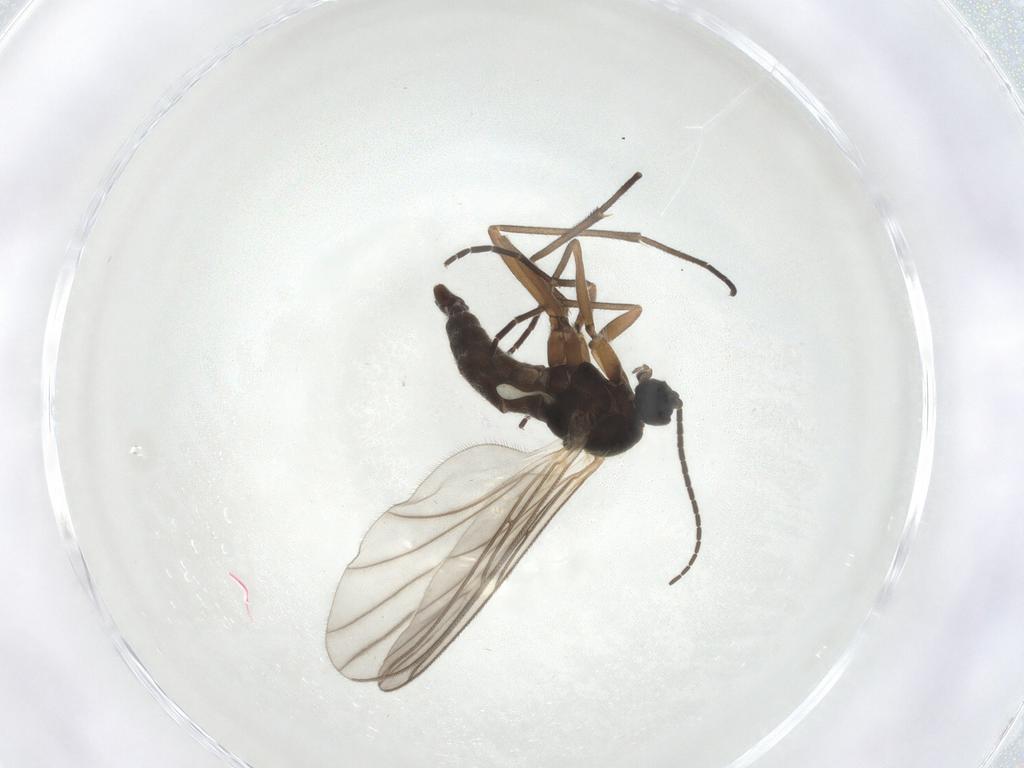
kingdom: Animalia
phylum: Arthropoda
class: Insecta
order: Diptera
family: Sciaridae
